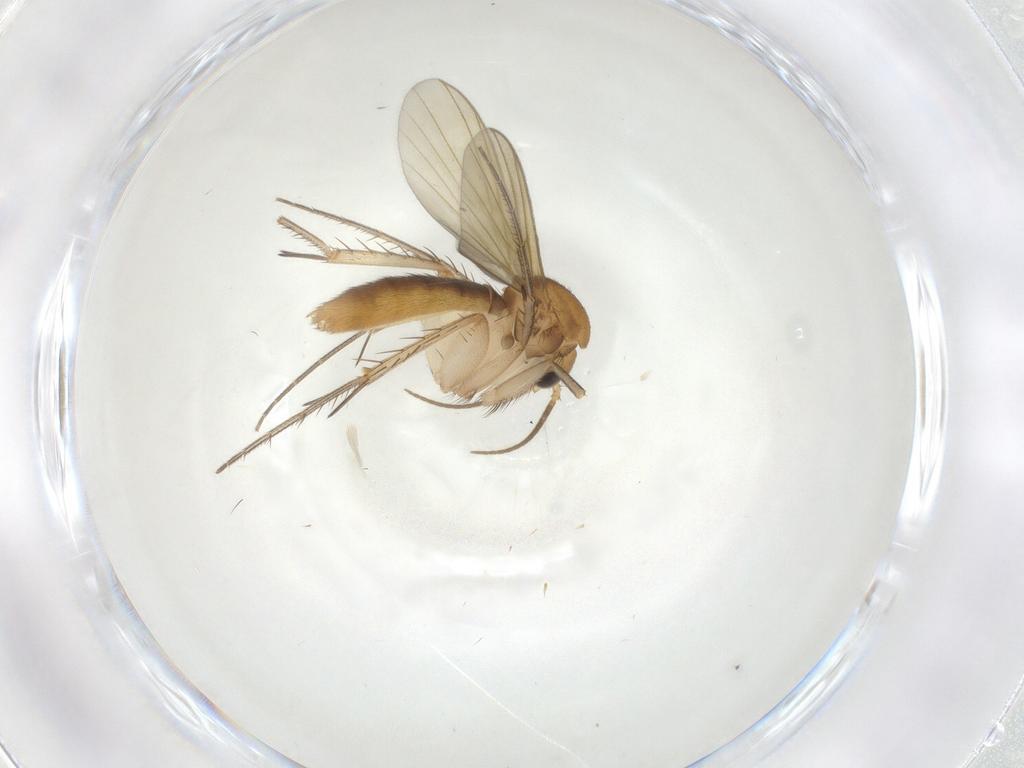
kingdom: Animalia
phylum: Arthropoda
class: Insecta
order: Diptera
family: Mycetophilidae
